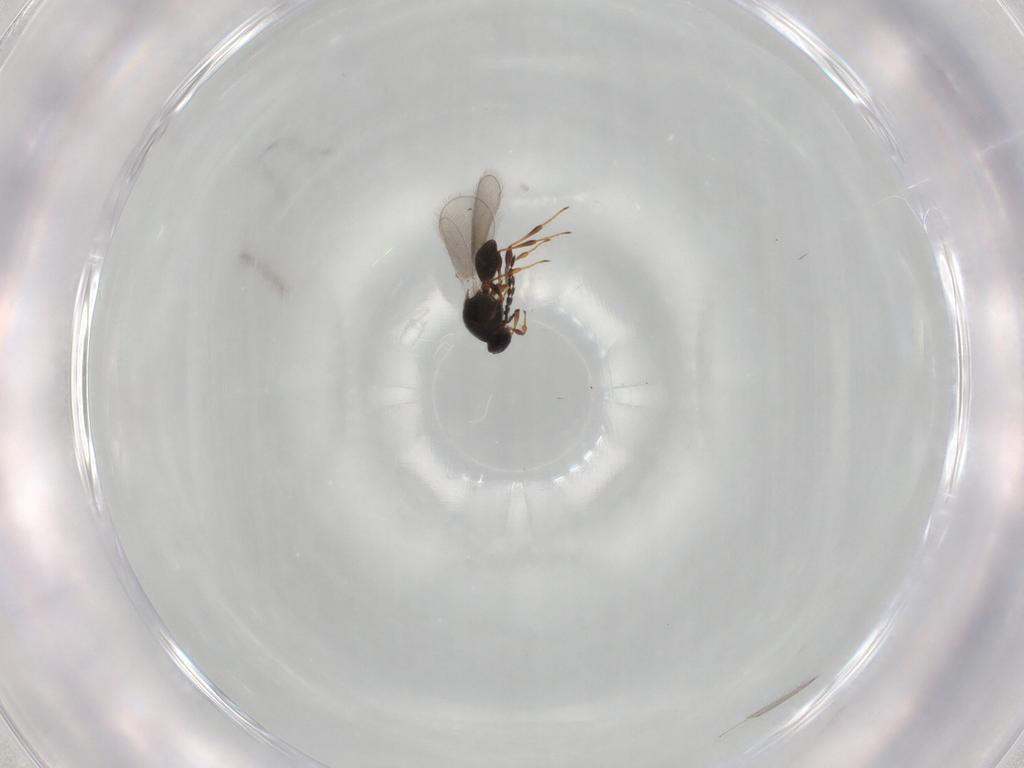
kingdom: Animalia
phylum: Arthropoda
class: Insecta
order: Hymenoptera
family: Platygastridae
